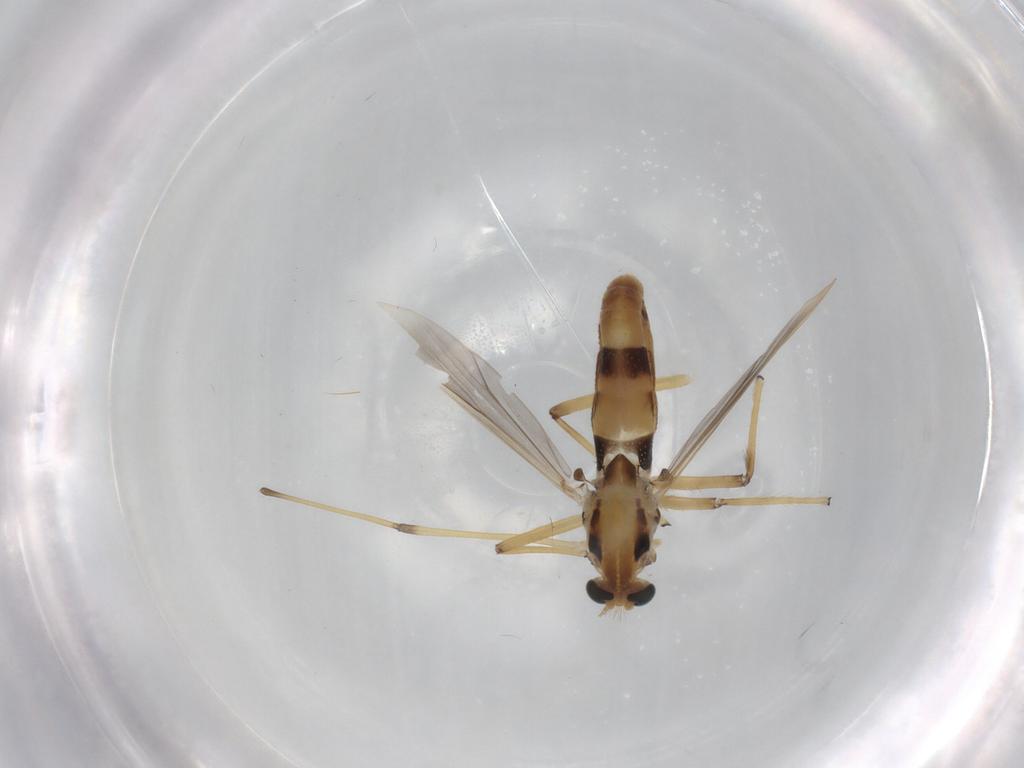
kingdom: Animalia
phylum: Arthropoda
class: Insecta
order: Diptera
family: Chironomidae
